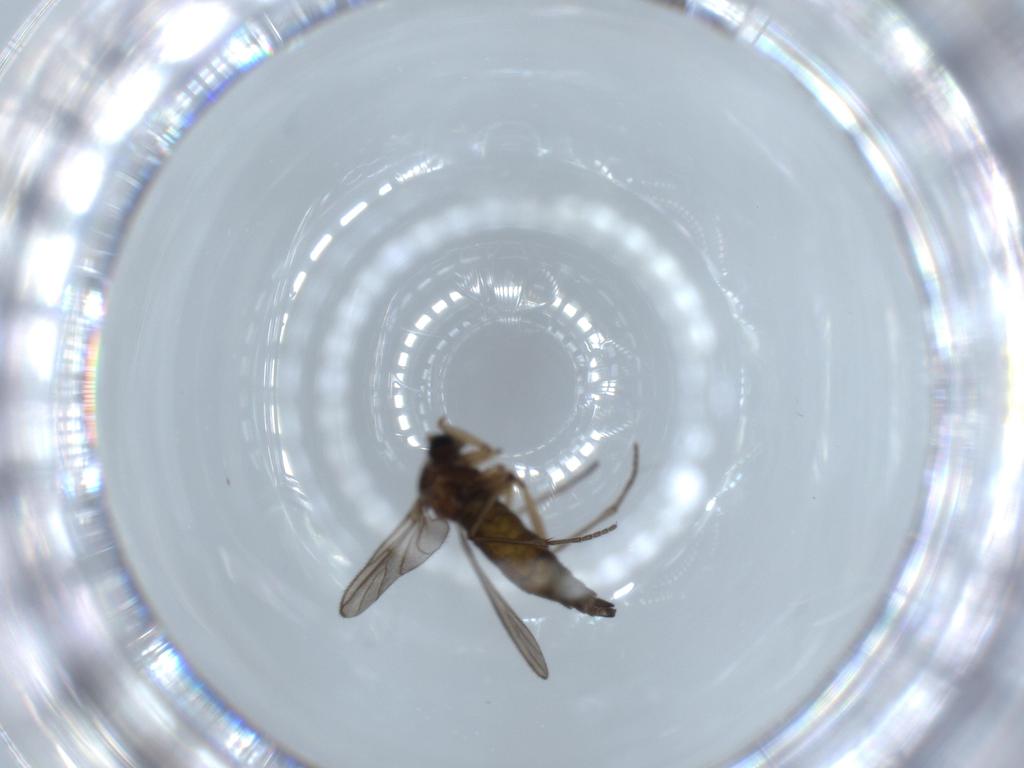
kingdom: Animalia
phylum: Arthropoda
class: Insecta
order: Diptera
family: Sciaridae
